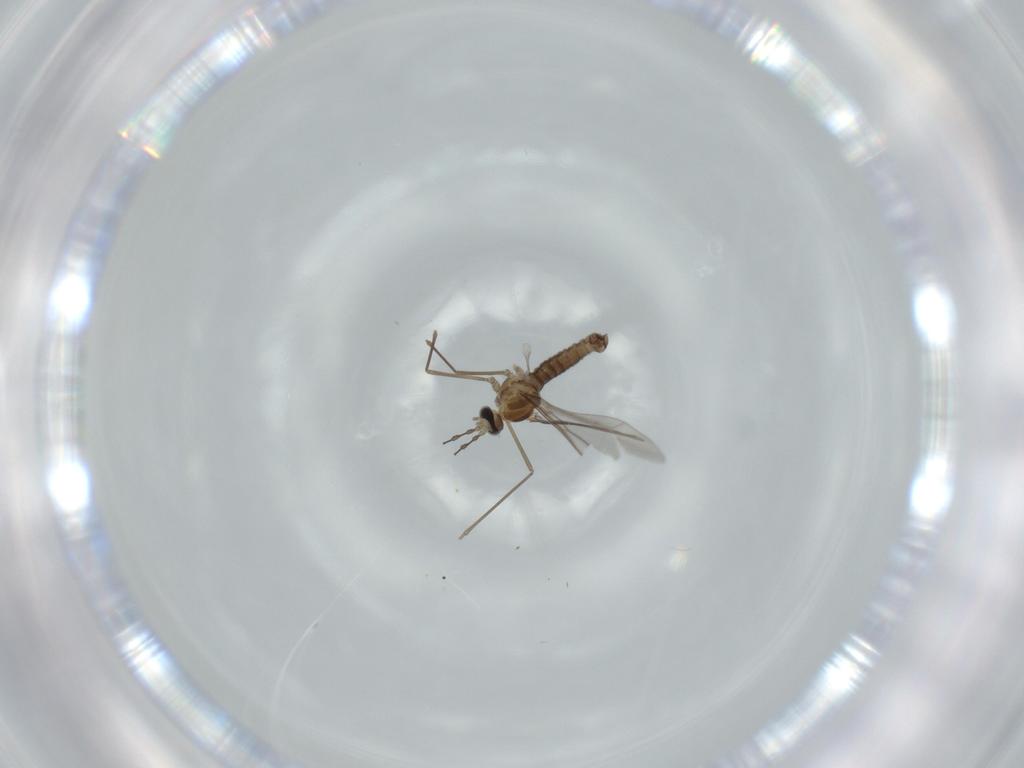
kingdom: Animalia
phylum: Arthropoda
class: Insecta
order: Diptera
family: Cecidomyiidae
